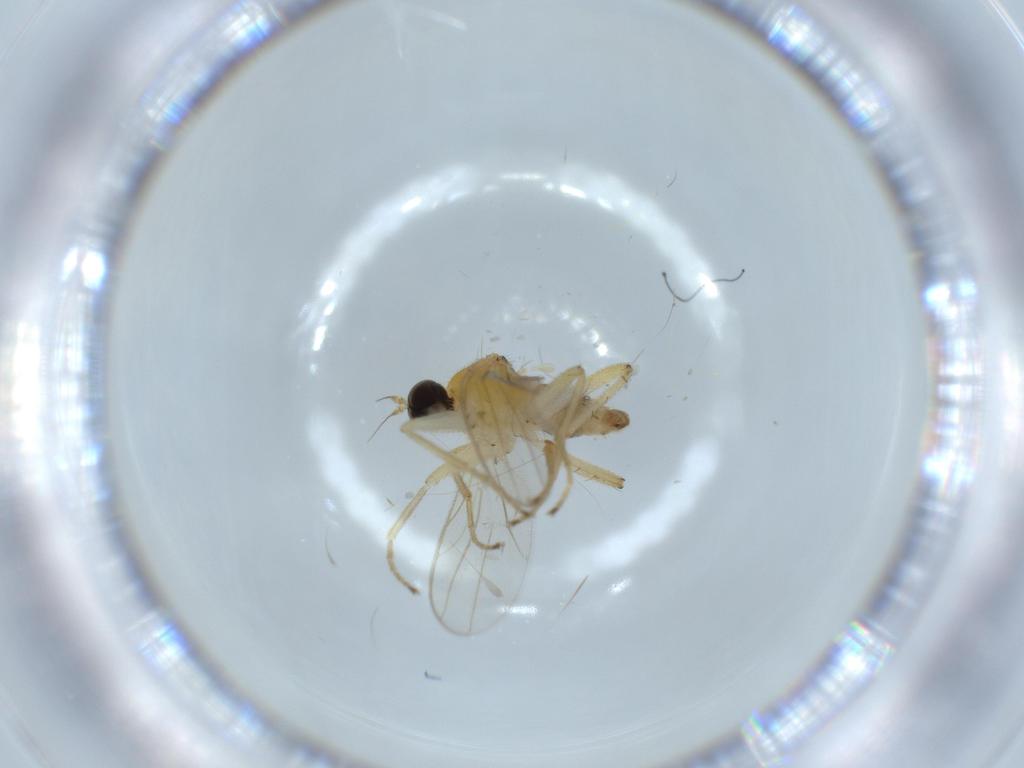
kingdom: Animalia
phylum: Arthropoda
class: Insecta
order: Diptera
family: Hybotidae
